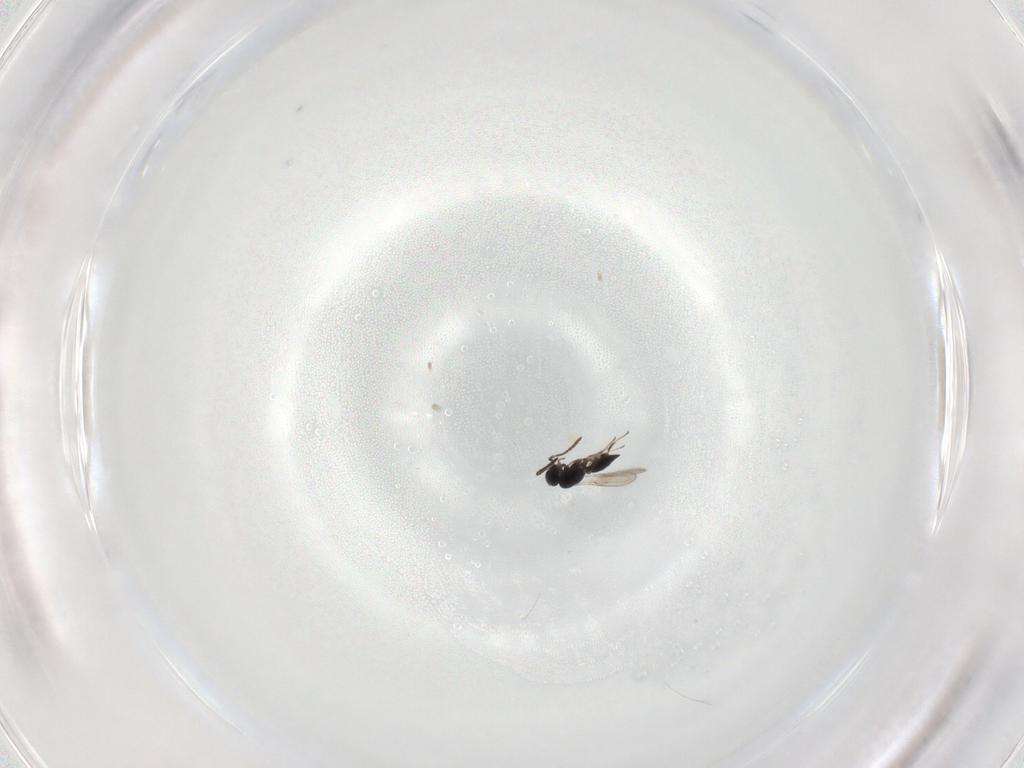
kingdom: Animalia
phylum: Arthropoda
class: Insecta
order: Hymenoptera
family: Scelionidae
